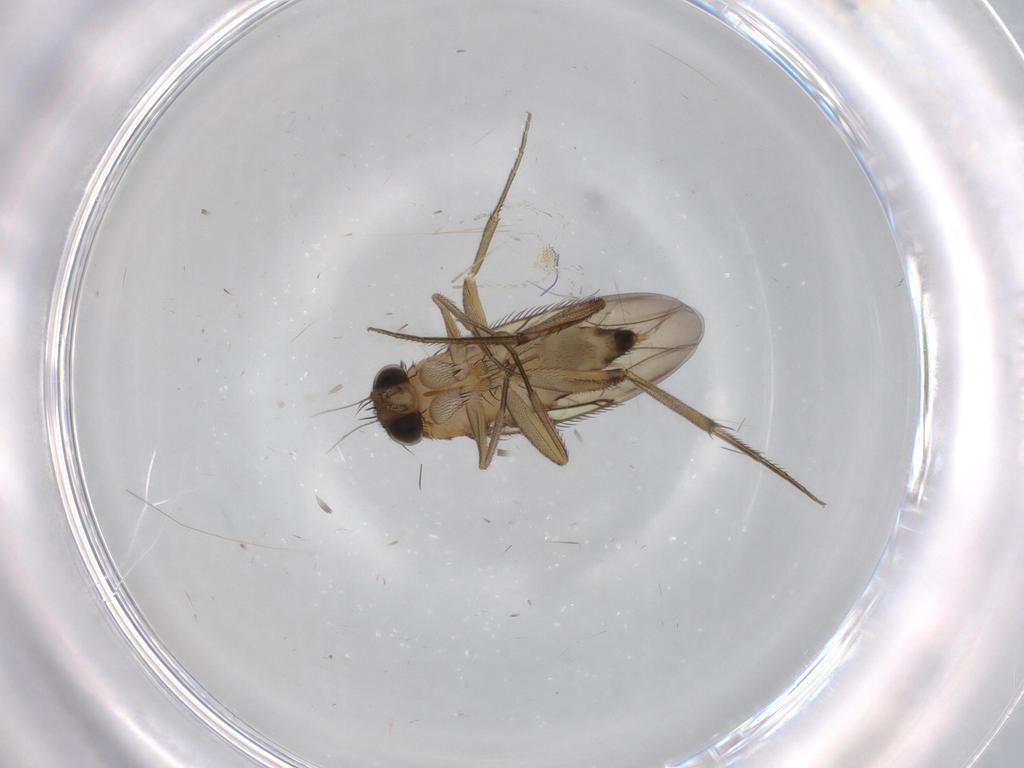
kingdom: Animalia
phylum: Arthropoda
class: Insecta
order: Diptera
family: Phoridae
